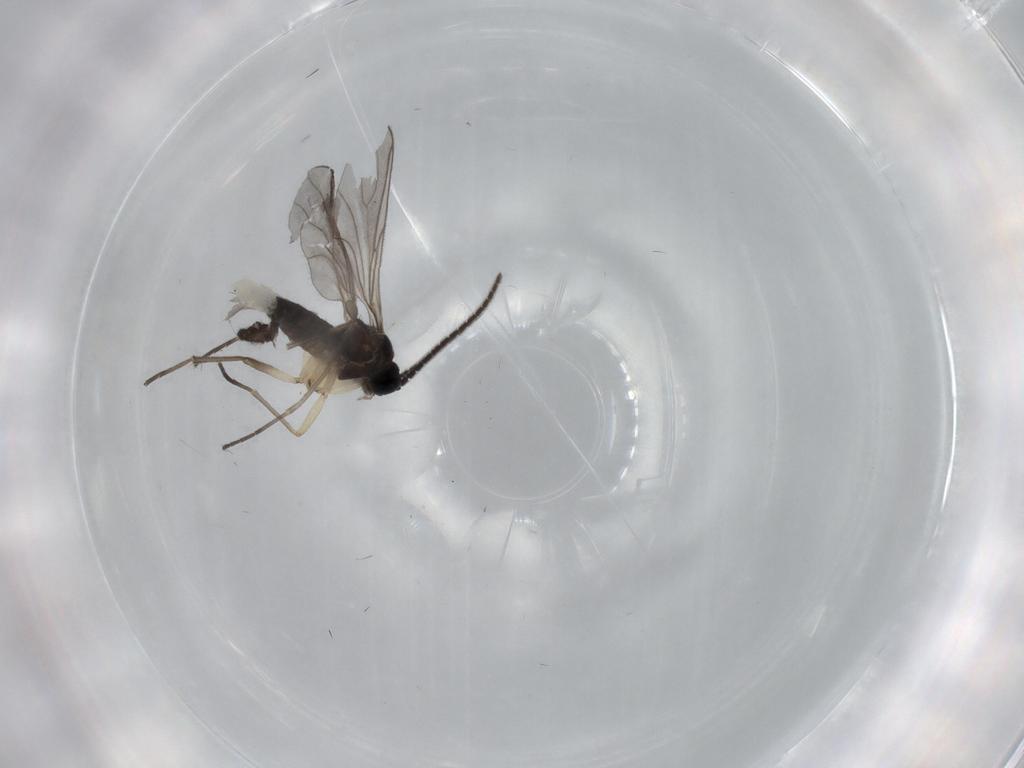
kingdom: Animalia
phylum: Arthropoda
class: Insecta
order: Diptera
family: Sciaridae
